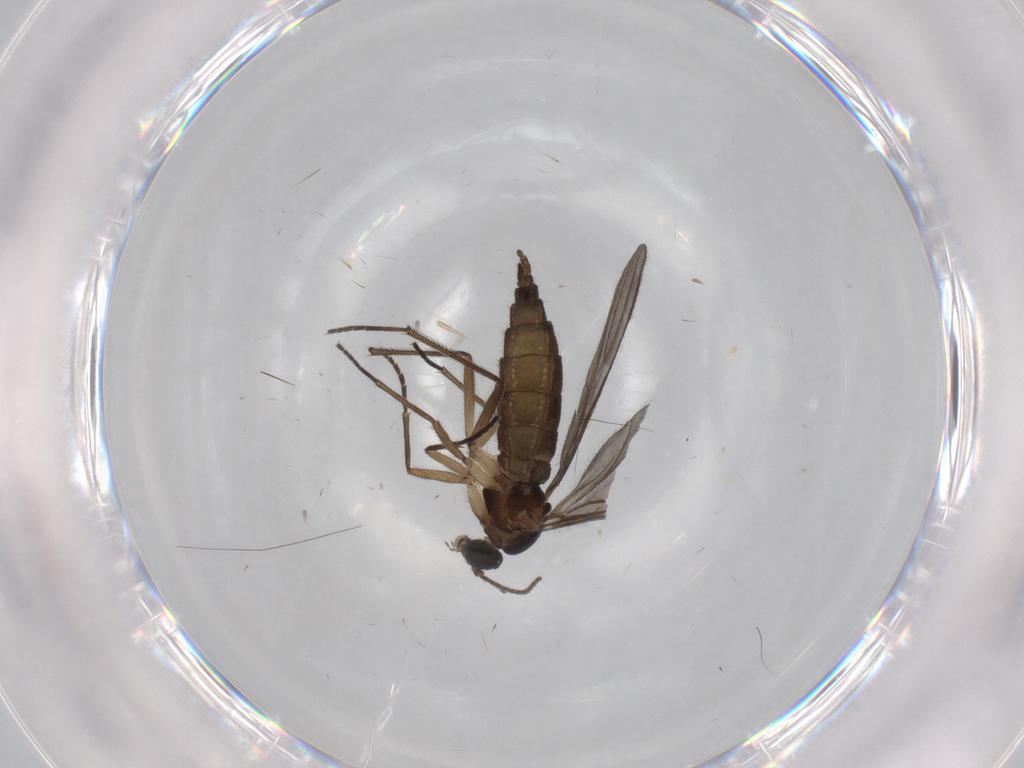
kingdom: Animalia
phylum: Arthropoda
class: Insecta
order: Diptera
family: Sciaridae
